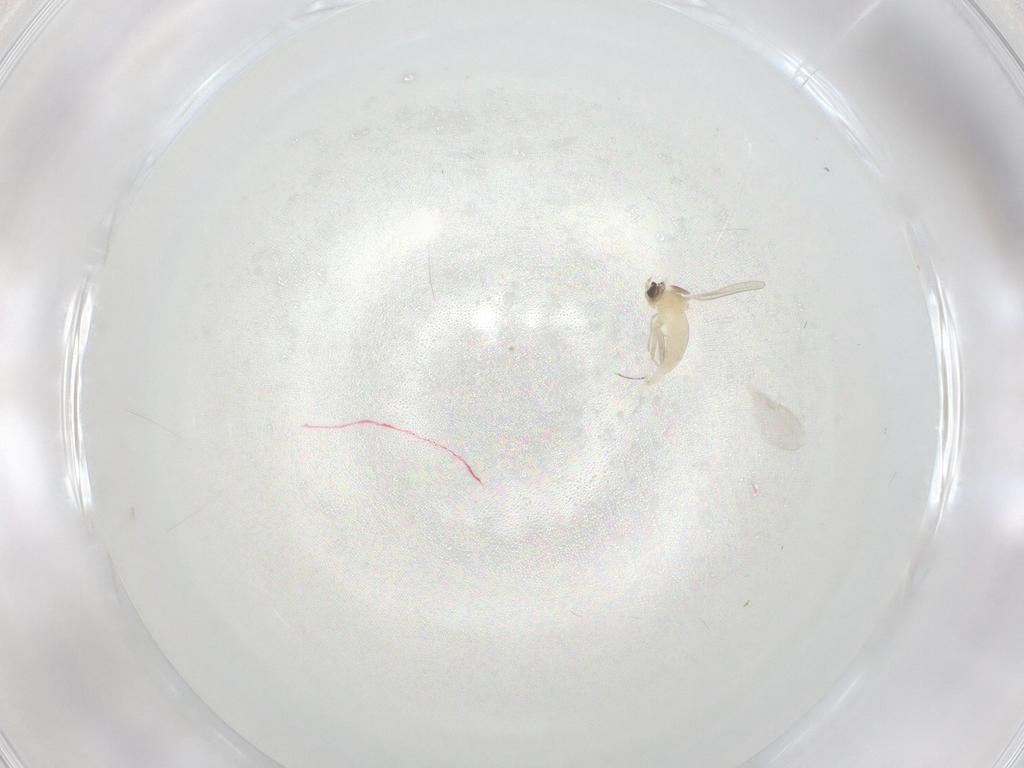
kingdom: Animalia
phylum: Arthropoda
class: Insecta
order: Diptera
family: Cecidomyiidae
